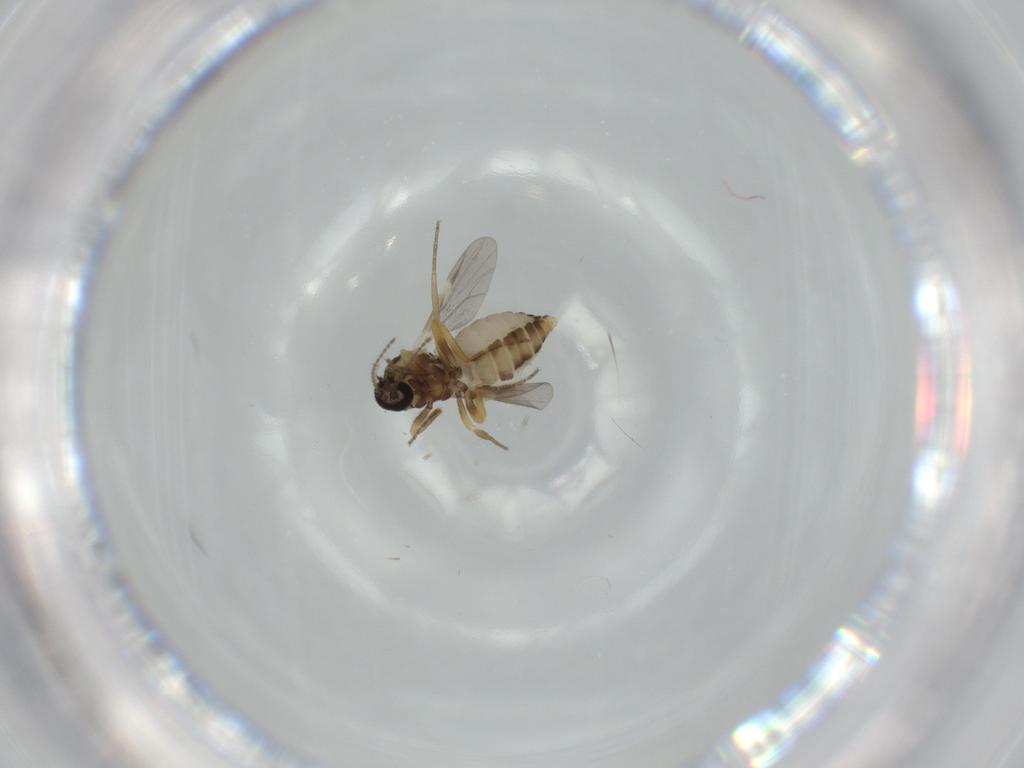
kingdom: Animalia
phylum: Arthropoda
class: Insecta
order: Diptera
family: Ceratopogonidae
